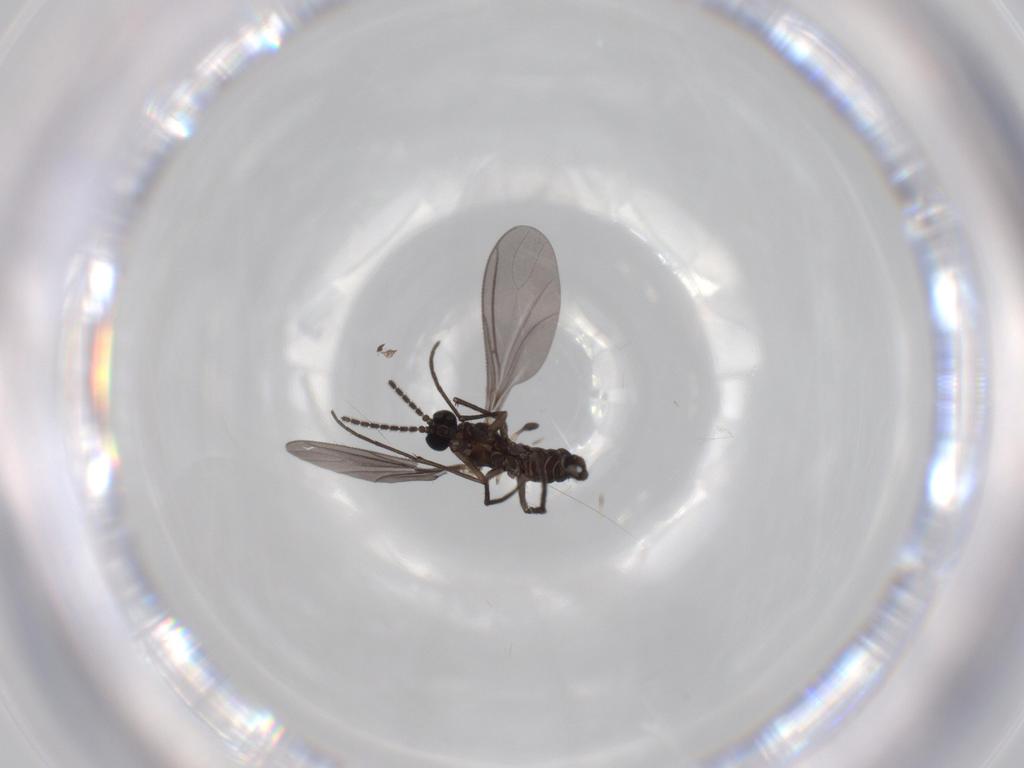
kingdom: Animalia
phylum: Arthropoda
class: Insecta
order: Diptera
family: Sciaridae
